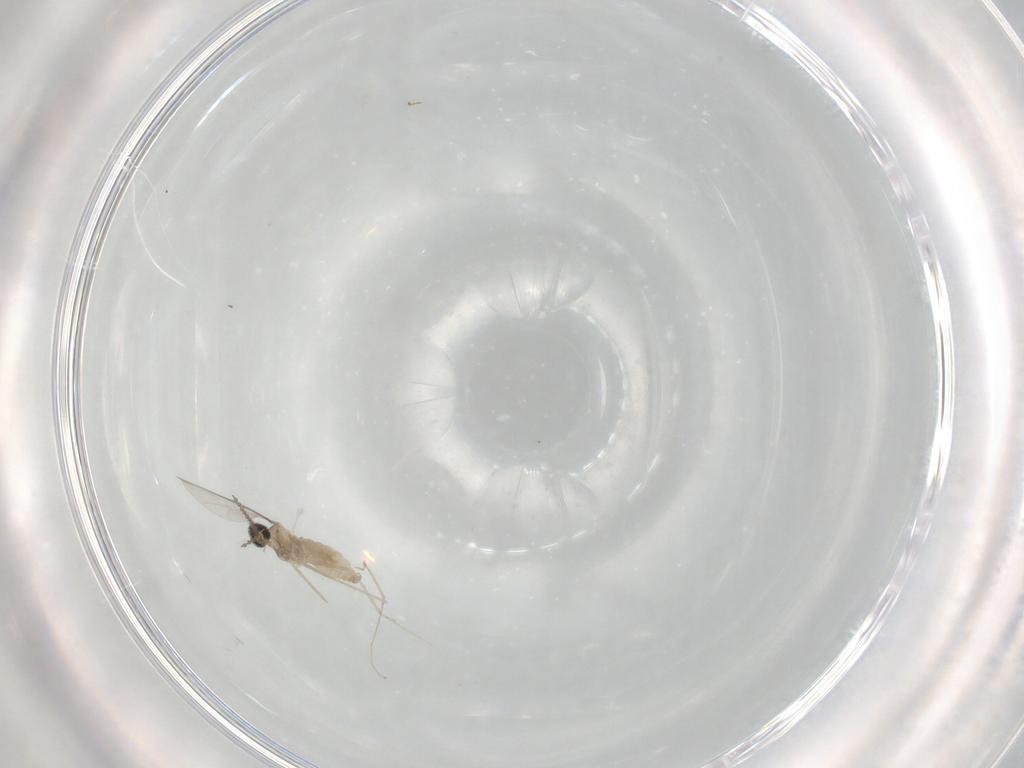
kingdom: Animalia
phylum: Arthropoda
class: Insecta
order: Diptera
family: Cecidomyiidae
